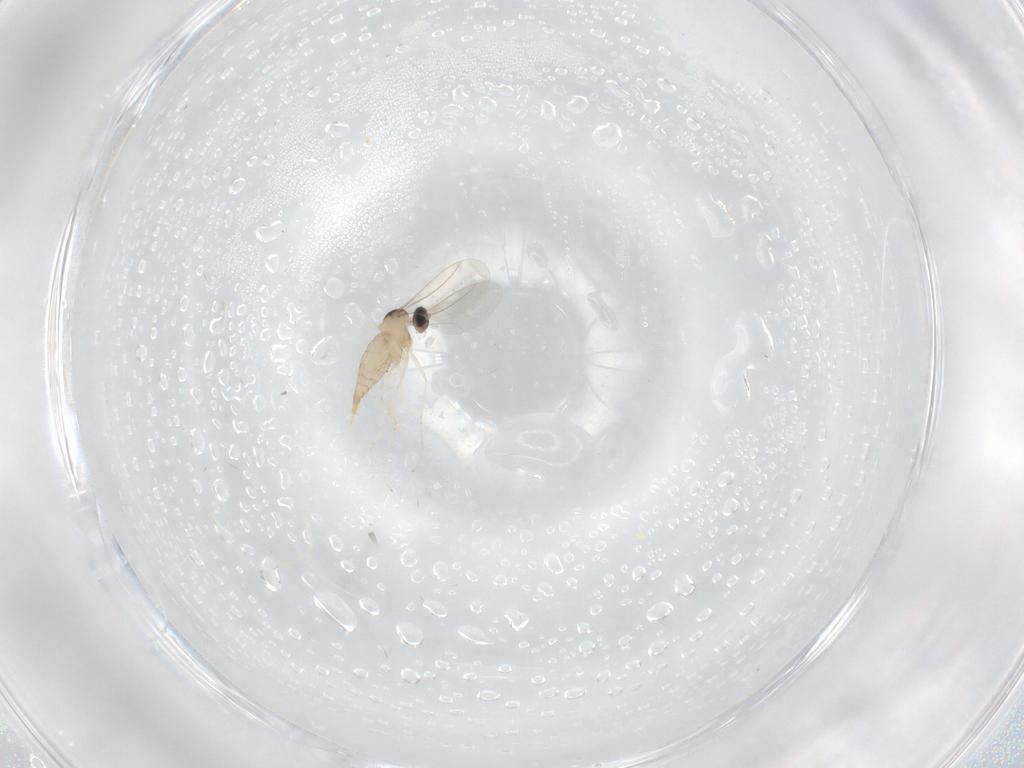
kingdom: Animalia
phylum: Arthropoda
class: Insecta
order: Diptera
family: Cecidomyiidae
